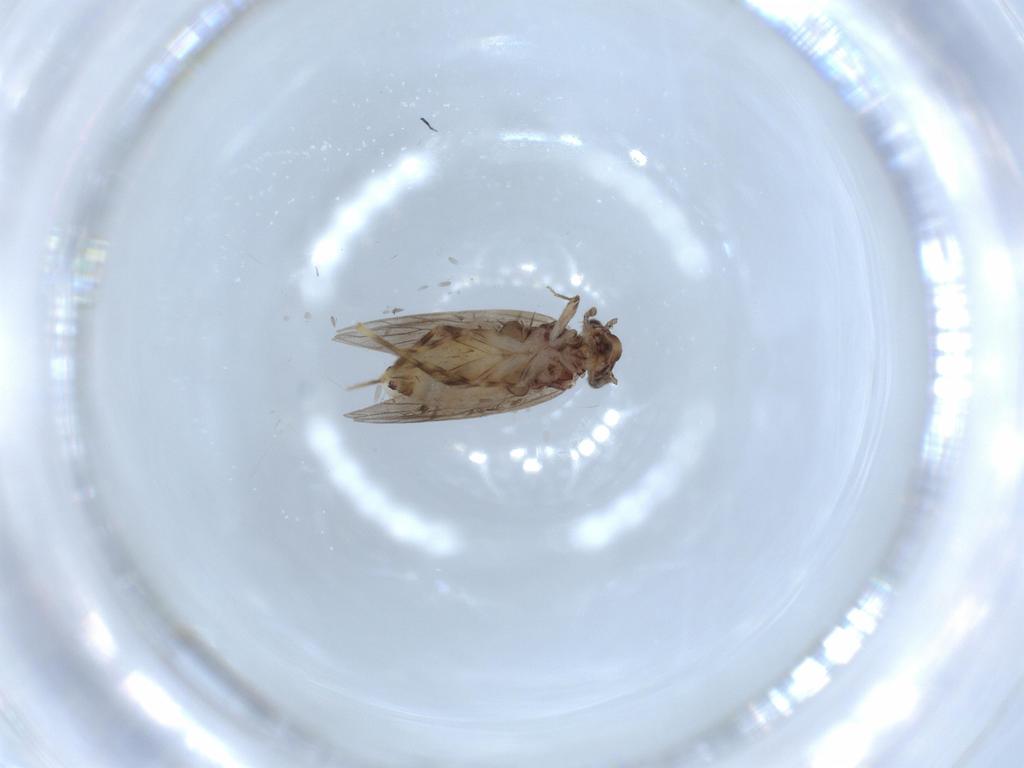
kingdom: Animalia
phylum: Arthropoda
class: Insecta
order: Psocodea
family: Lepidopsocidae
